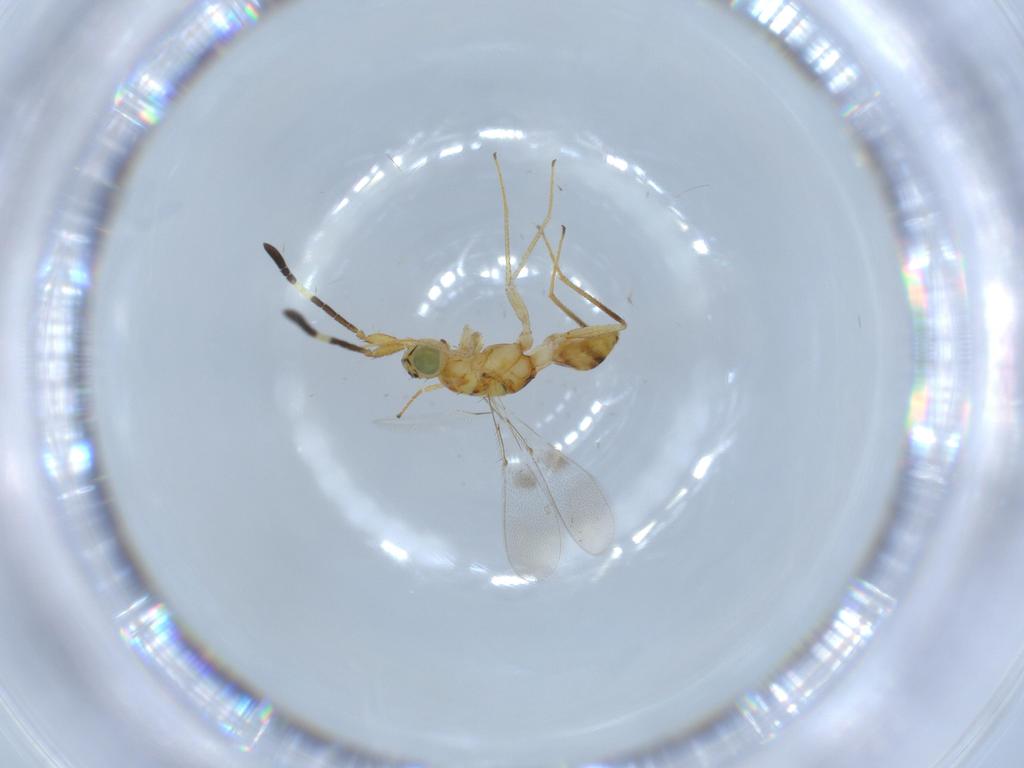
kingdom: Animalia
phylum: Arthropoda
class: Insecta
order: Hymenoptera
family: Mymaridae
